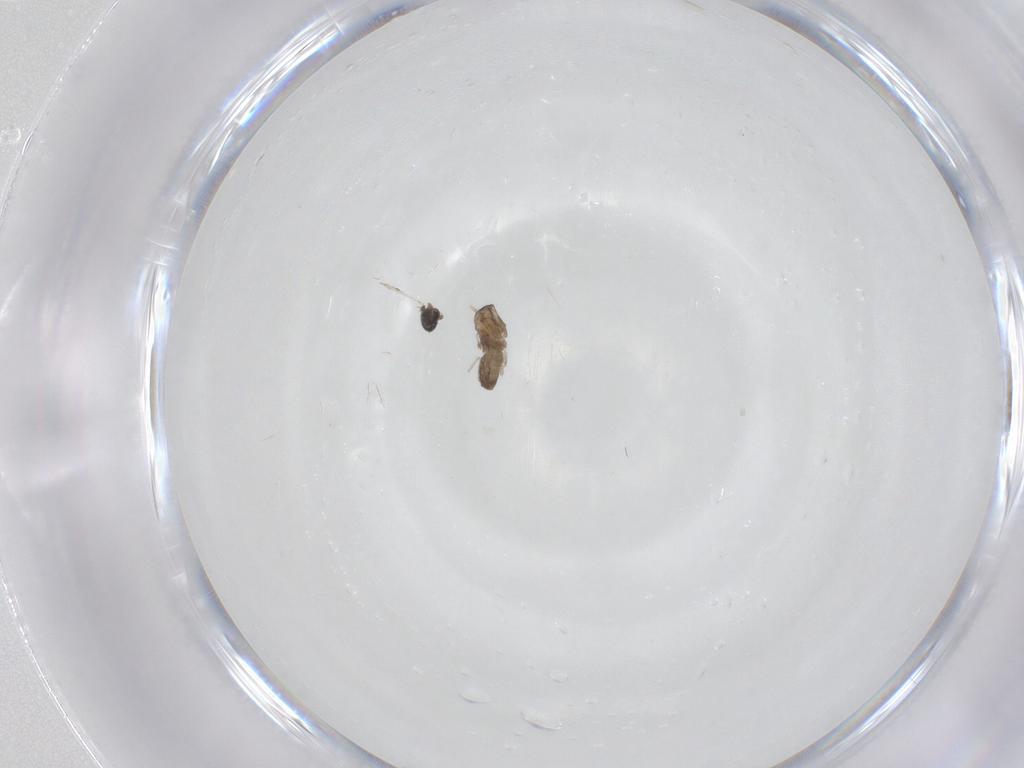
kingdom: Animalia
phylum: Arthropoda
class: Insecta
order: Diptera
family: Ceratopogonidae
